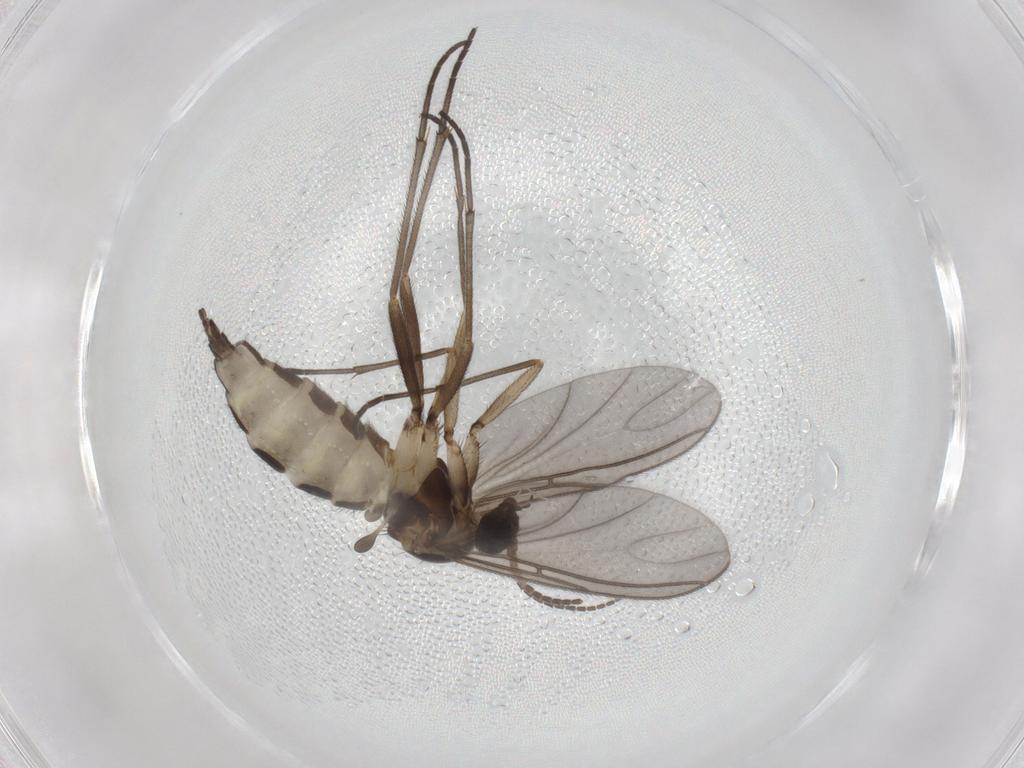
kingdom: Animalia
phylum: Arthropoda
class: Insecta
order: Diptera
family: Sciaridae
